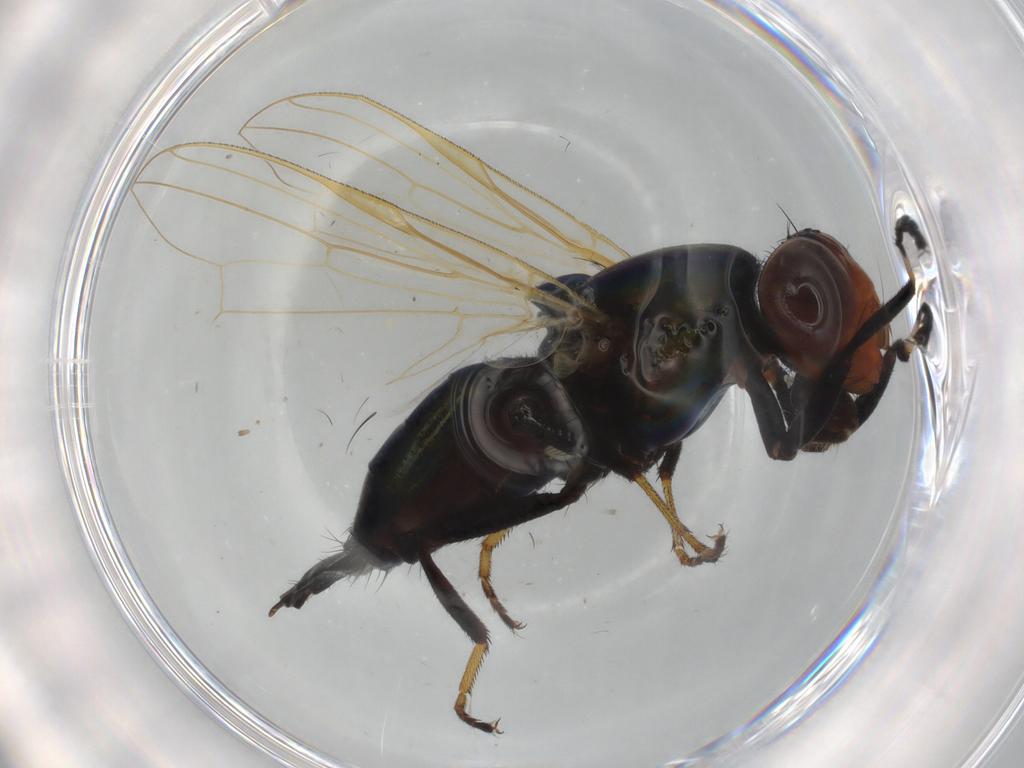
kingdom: Animalia
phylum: Arthropoda
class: Insecta
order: Diptera
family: Ulidiidae
